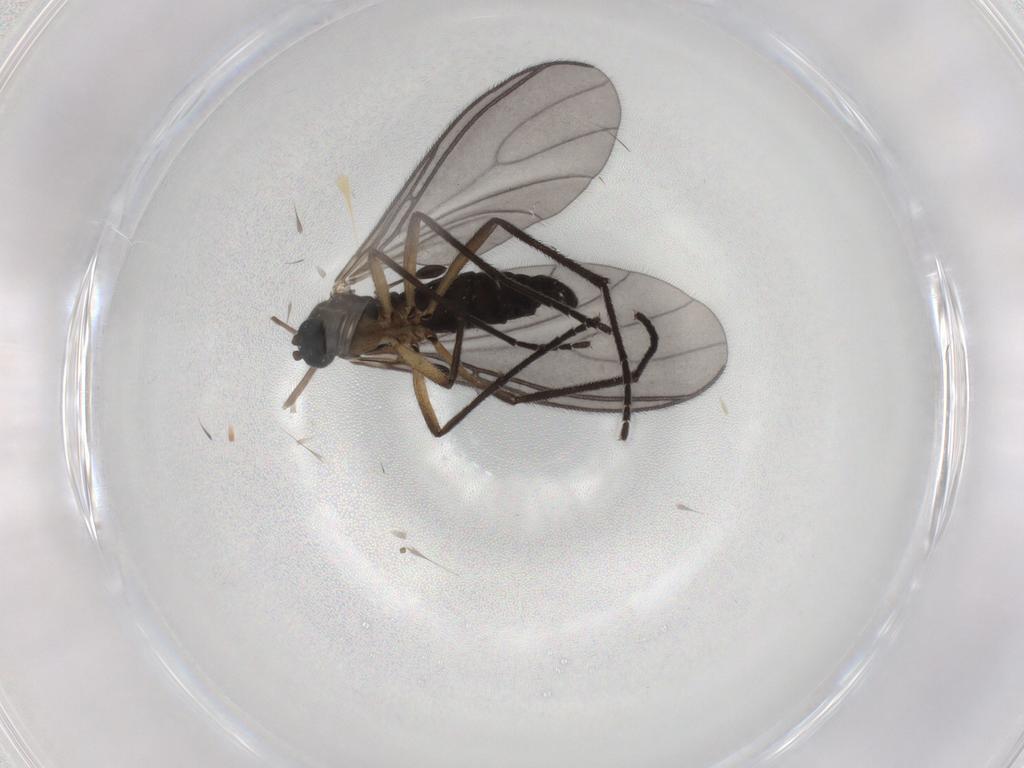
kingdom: Animalia
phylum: Arthropoda
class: Insecta
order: Diptera
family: Sciaridae
